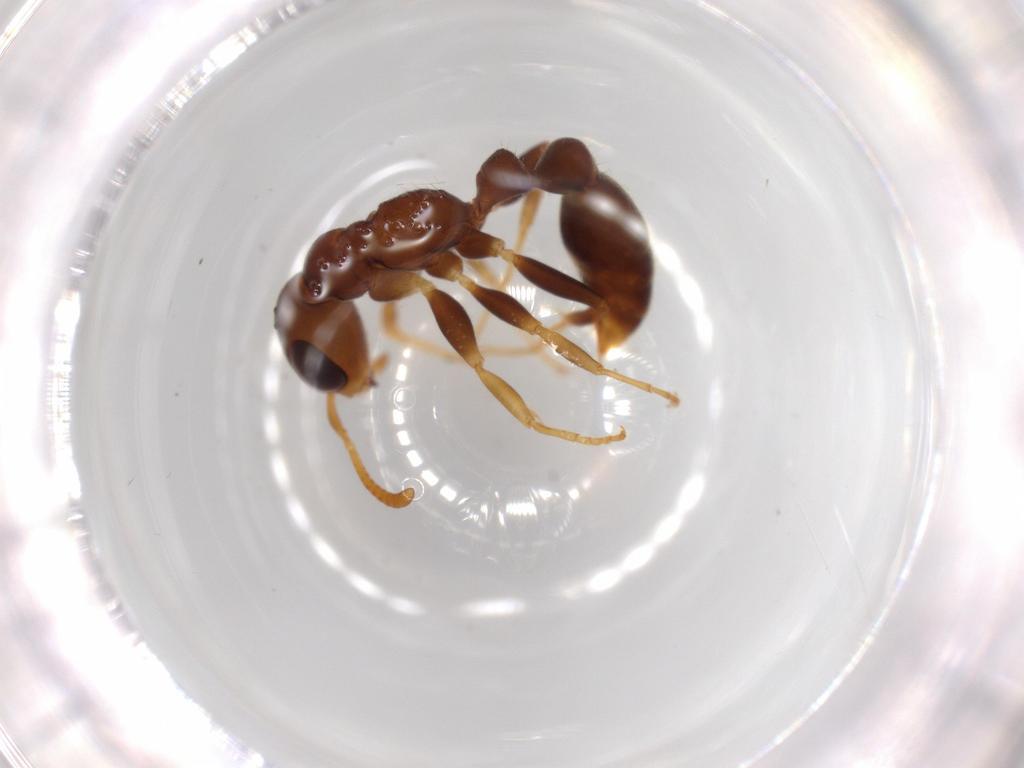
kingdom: Animalia
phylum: Arthropoda
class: Insecta
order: Hymenoptera
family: Formicidae
